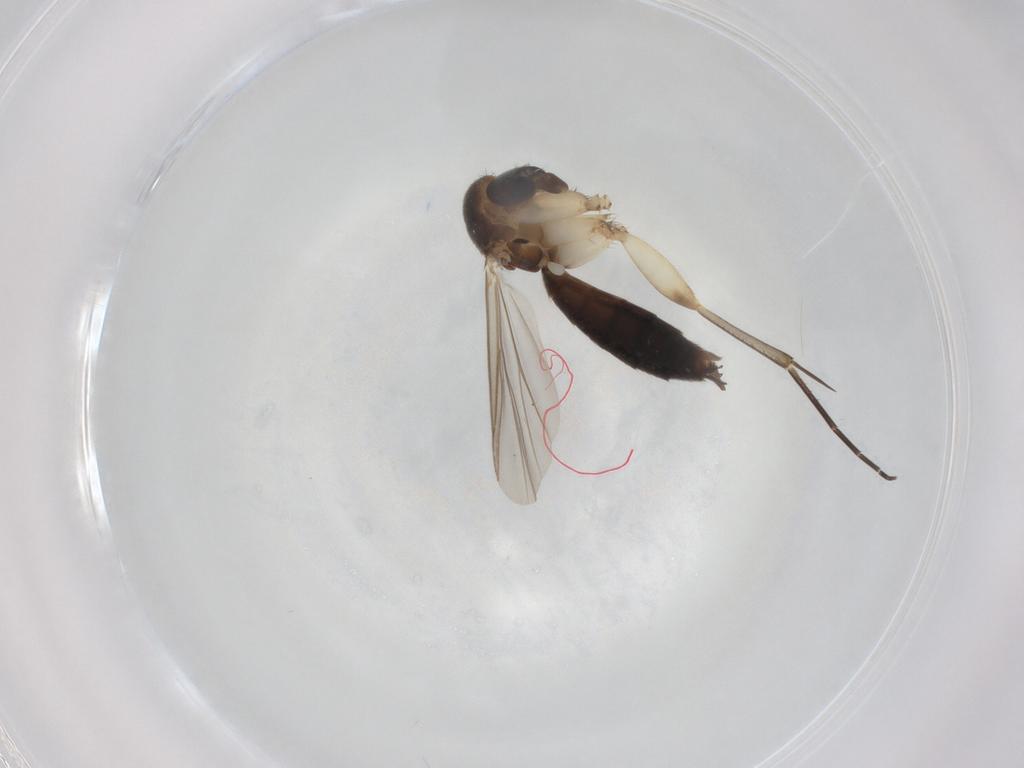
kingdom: Animalia
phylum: Arthropoda
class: Insecta
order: Diptera
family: Mycetophilidae
